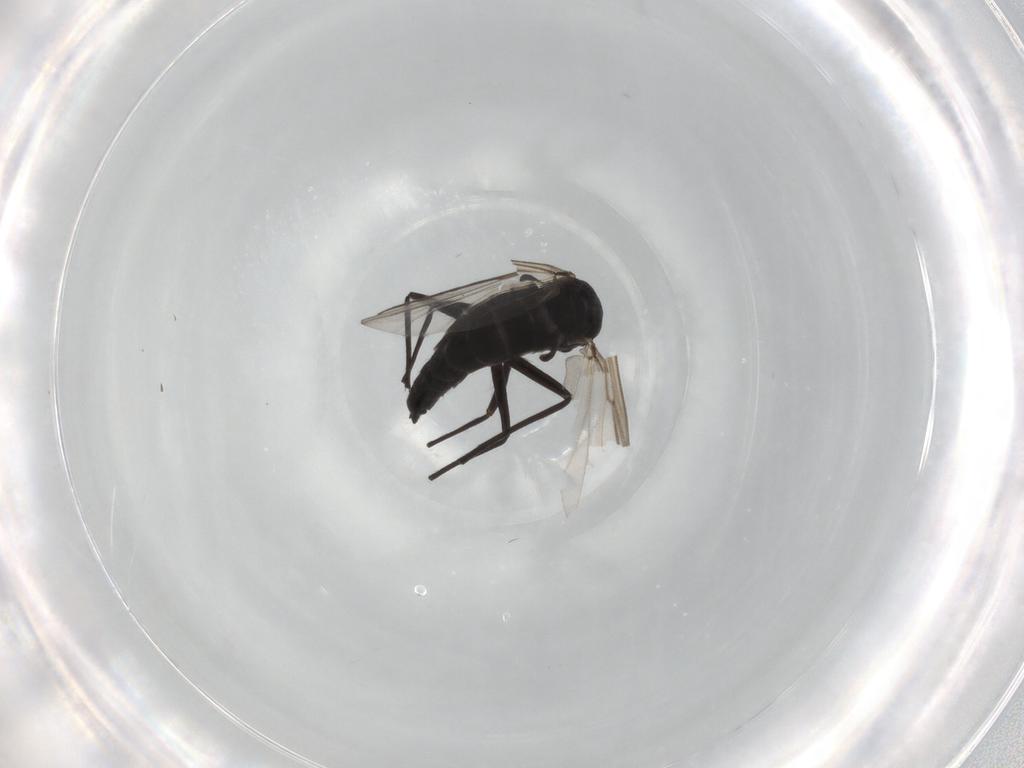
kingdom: Animalia
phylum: Arthropoda
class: Insecta
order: Diptera
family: Chironomidae
